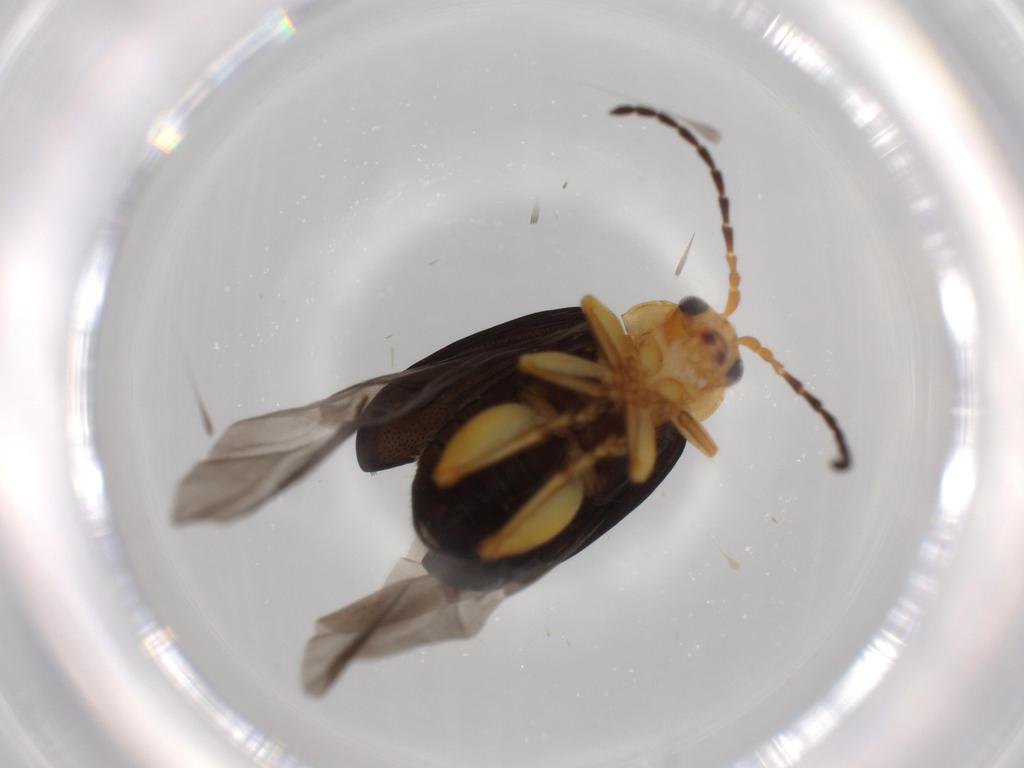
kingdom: Animalia
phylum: Arthropoda
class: Insecta
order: Coleoptera
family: Chrysomelidae
